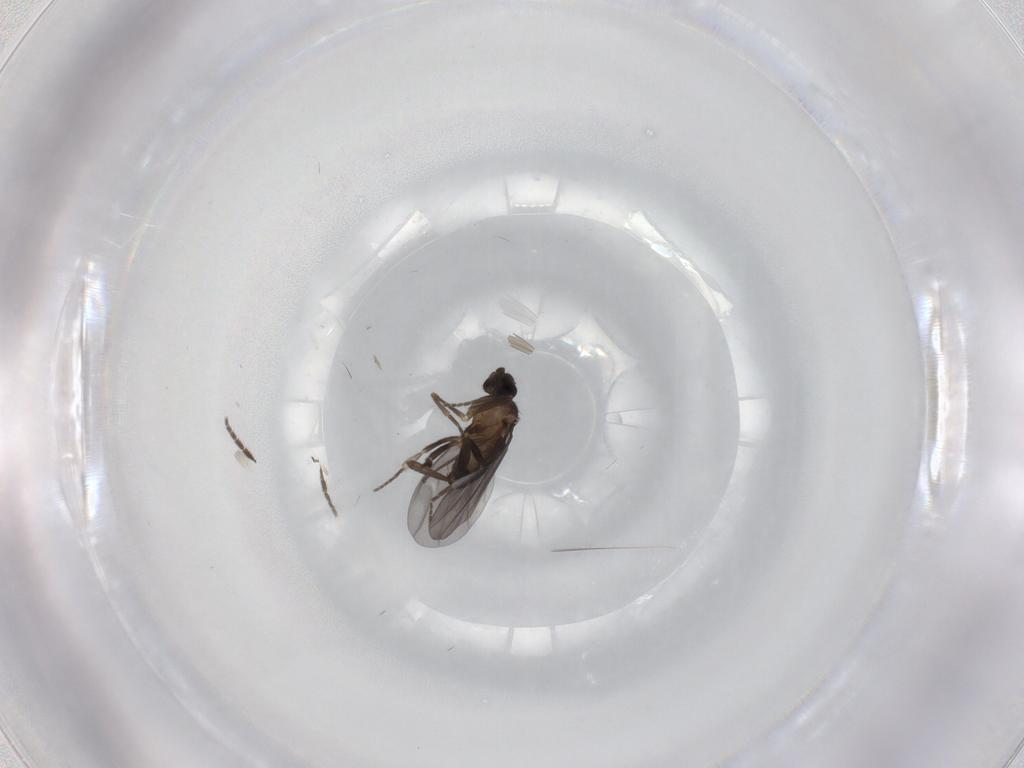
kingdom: Animalia
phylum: Arthropoda
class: Insecta
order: Diptera
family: Phoridae
